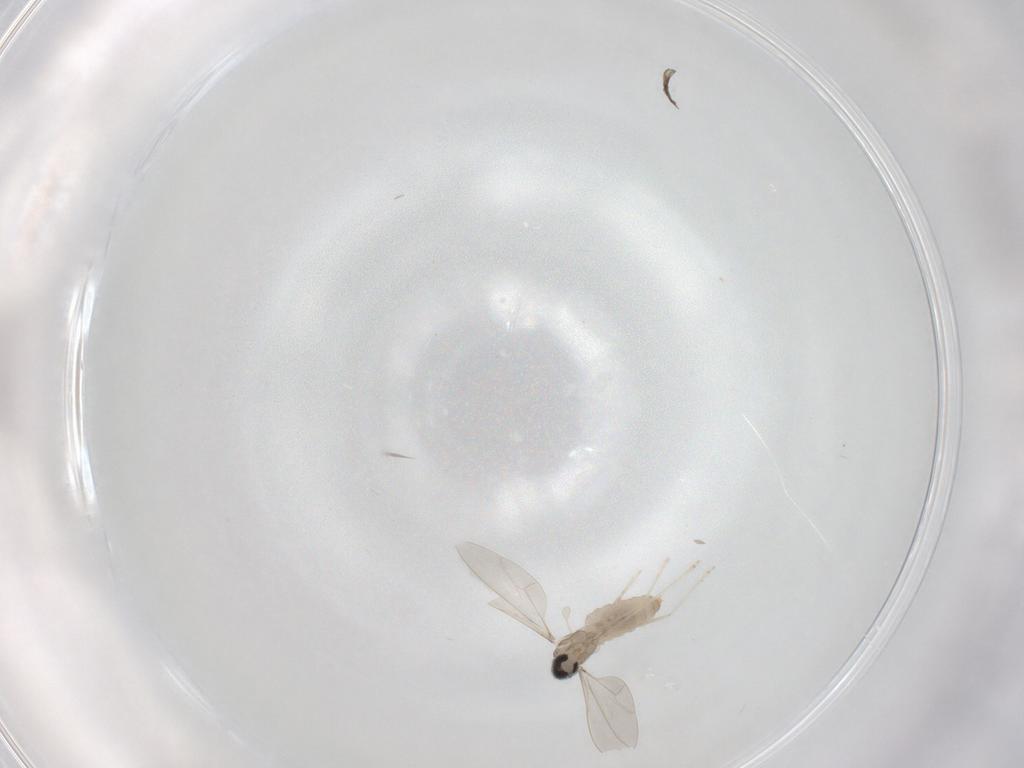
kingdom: Animalia
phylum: Arthropoda
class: Insecta
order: Diptera
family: Cecidomyiidae
